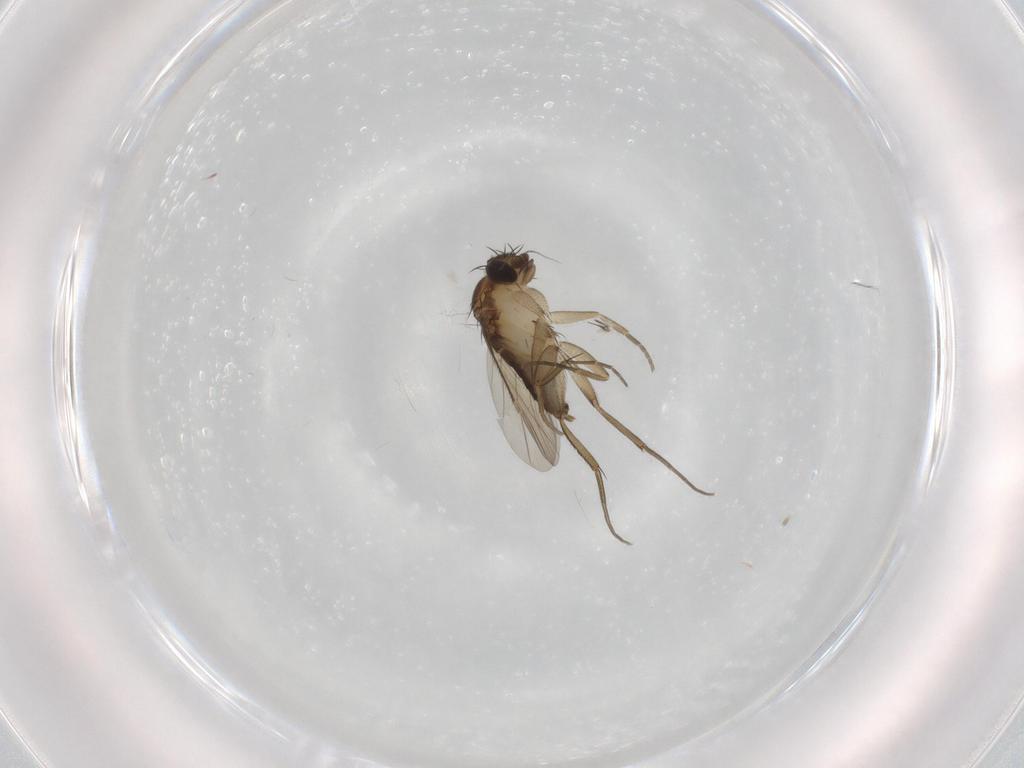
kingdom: Animalia
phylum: Arthropoda
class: Insecta
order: Diptera
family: Phoridae
